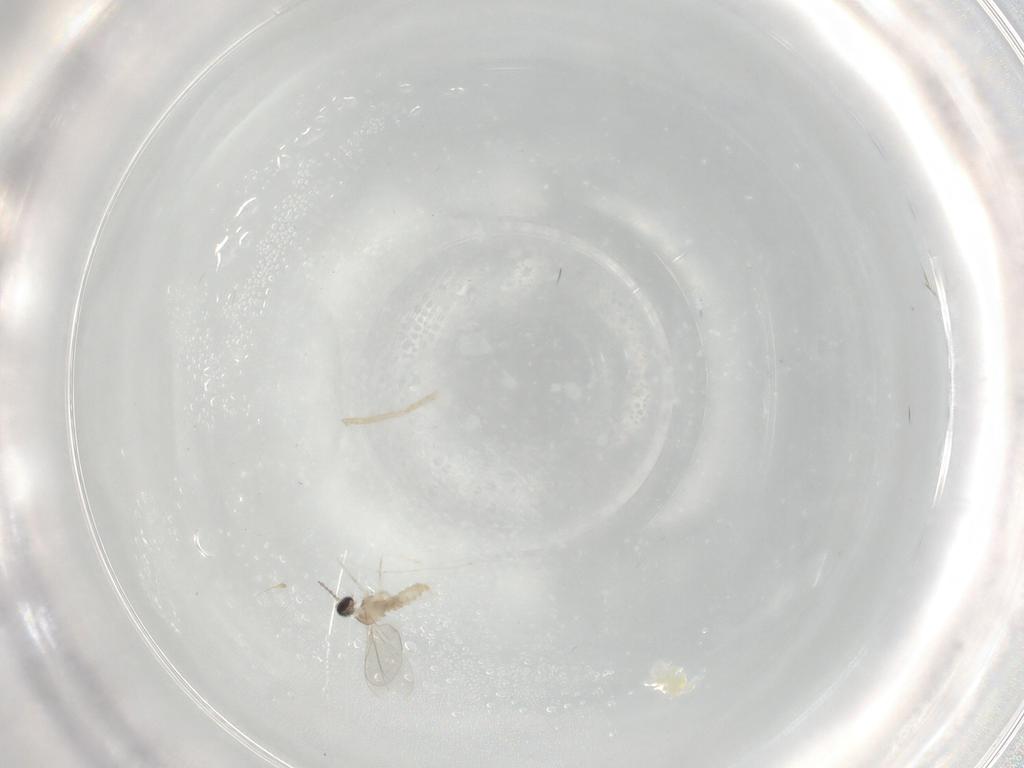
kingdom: Animalia
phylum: Arthropoda
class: Insecta
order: Diptera
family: Cecidomyiidae
